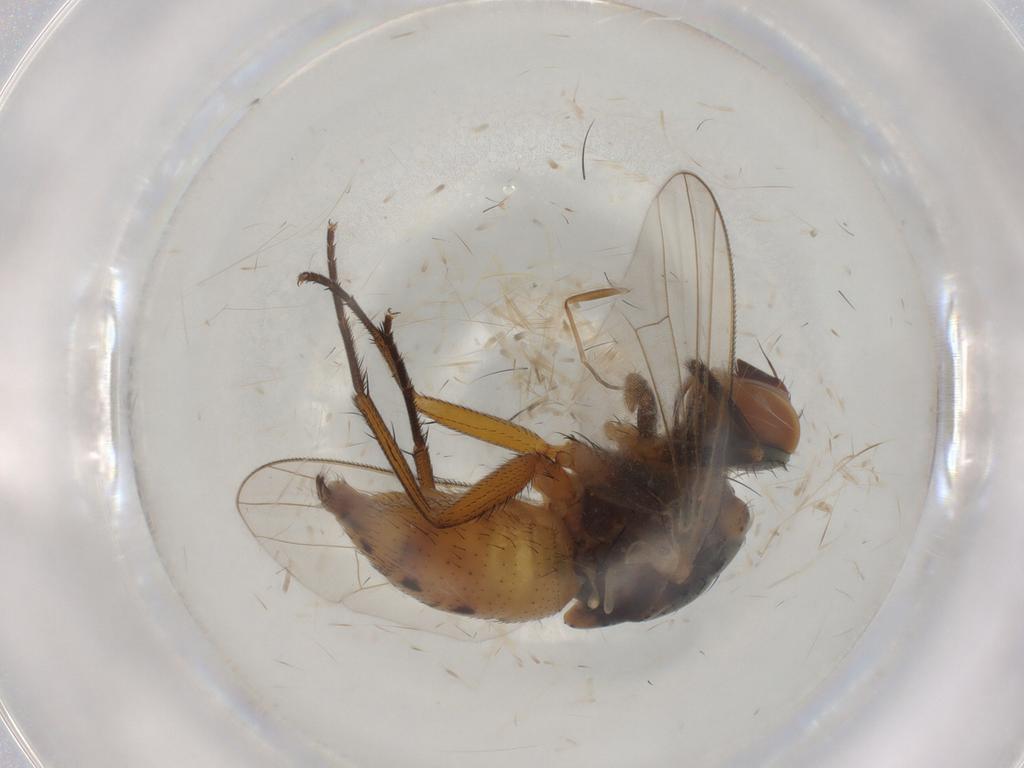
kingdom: Animalia
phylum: Arthropoda
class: Insecta
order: Diptera
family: Muscidae
